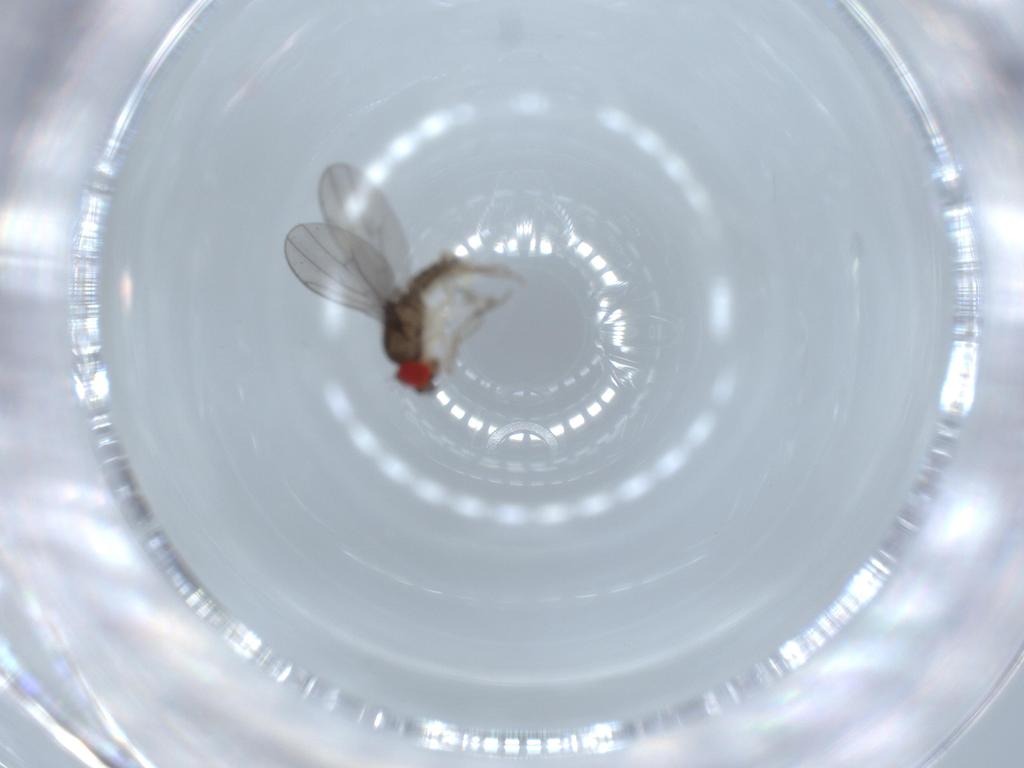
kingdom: Animalia
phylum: Arthropoda
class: Insecta
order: Diptera
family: Drosophilidae
